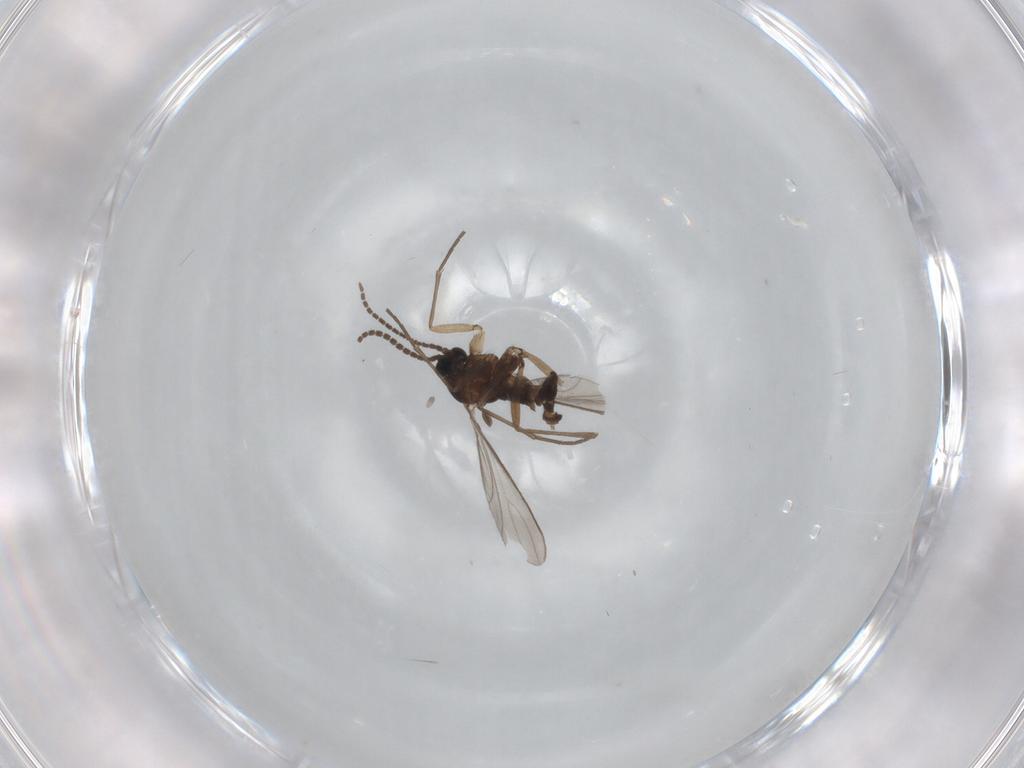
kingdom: Animalia
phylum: Arthropoda
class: Insecta
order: Diptera
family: Sciaridae
